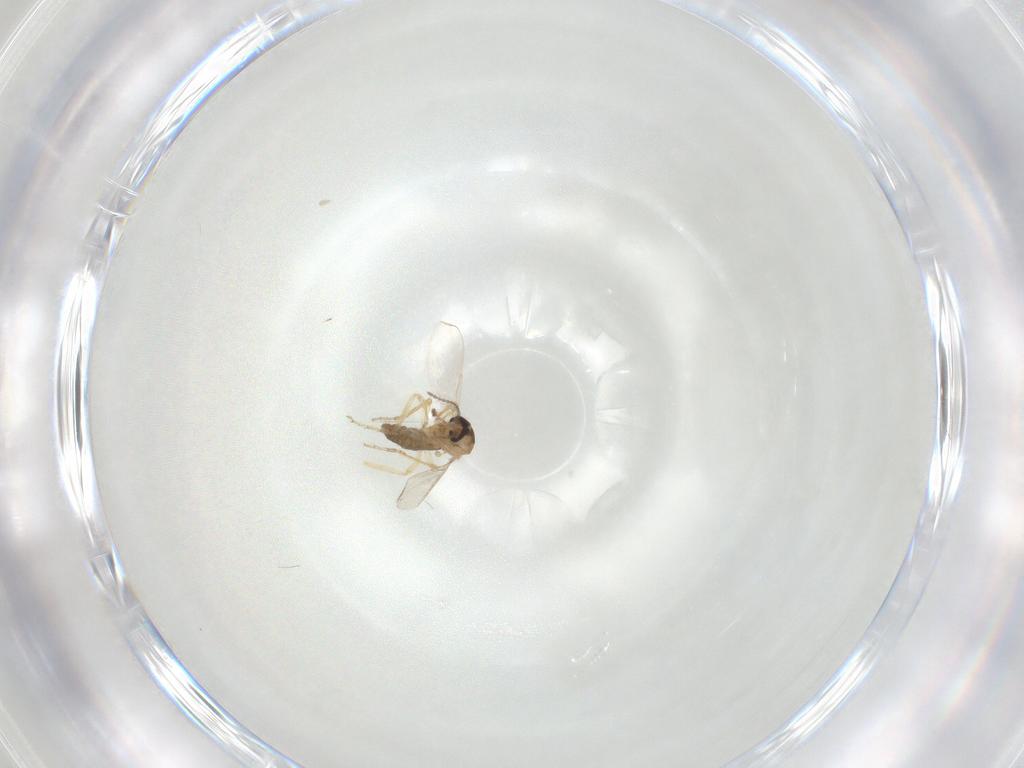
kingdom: Animalia
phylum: Arthropoda
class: Insecta
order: Diptera
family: Ceratopogonidae
